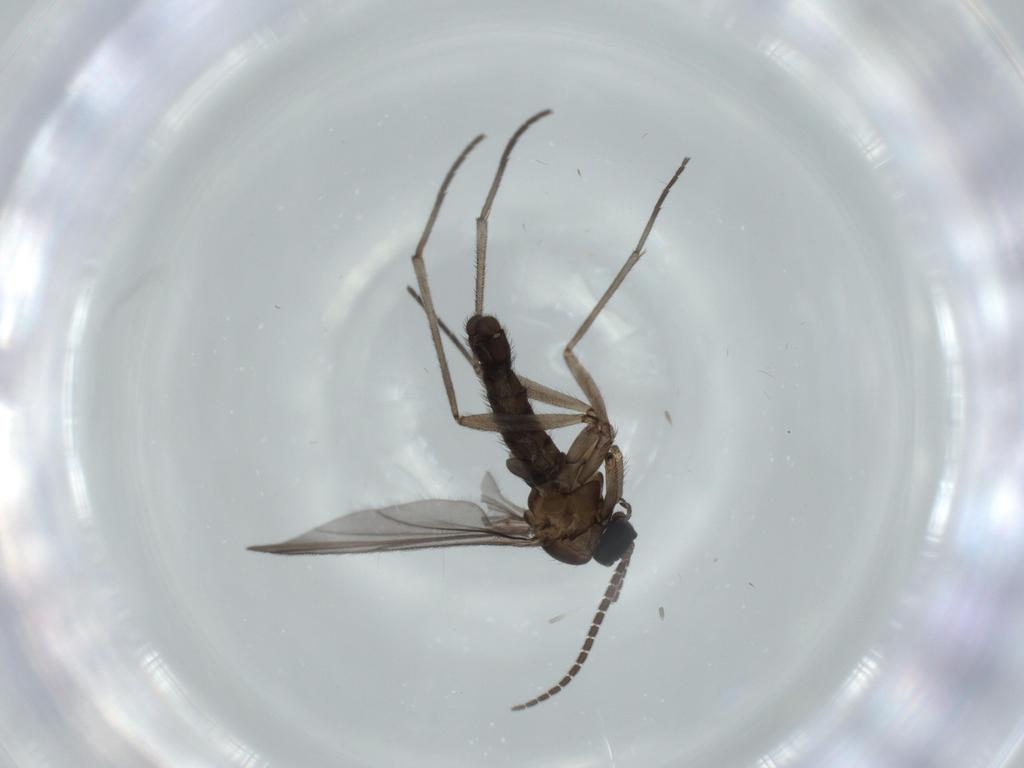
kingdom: Animalia
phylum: Arthropoda
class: Insecta
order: Diptera
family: Sciaridae
